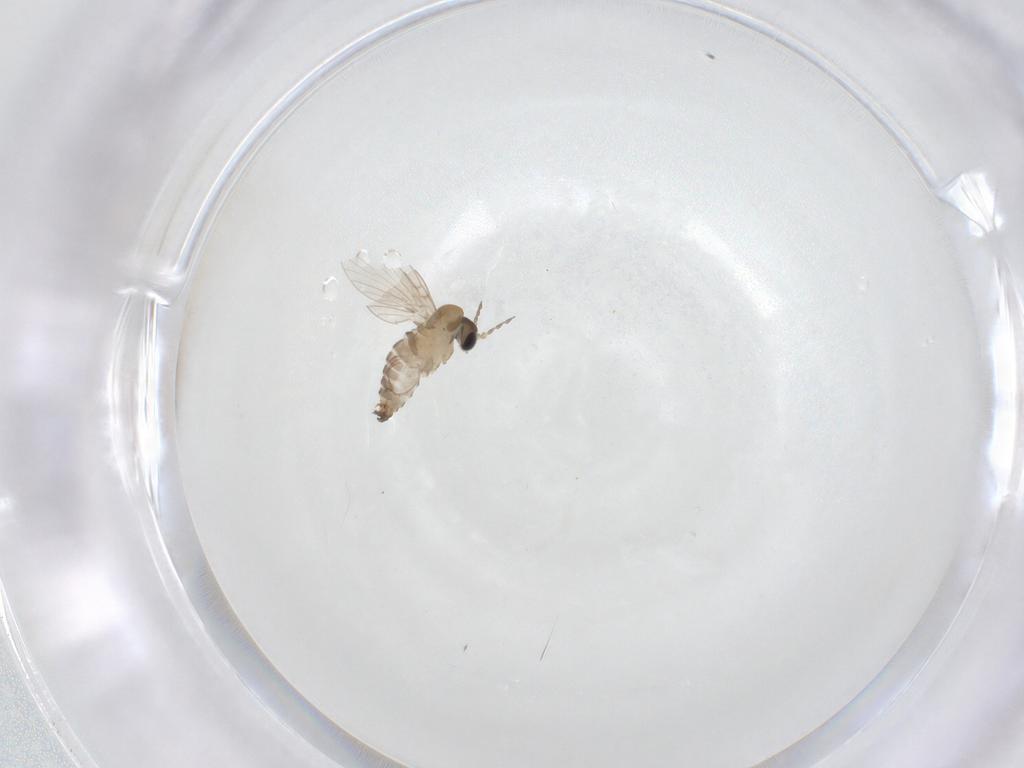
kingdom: Animalia
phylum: Arthropoda
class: Insecta
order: Diptera
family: Psychodidae
